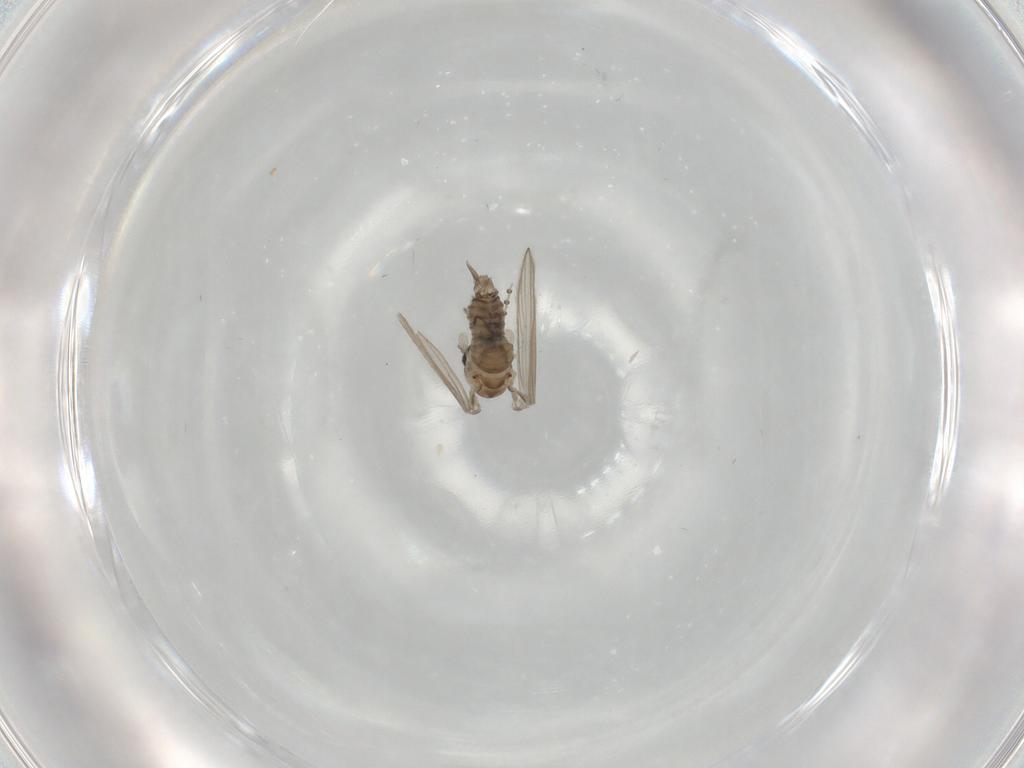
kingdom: Animalia
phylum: Arthropoda
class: Insecta
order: Diptera
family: Psychodidae
